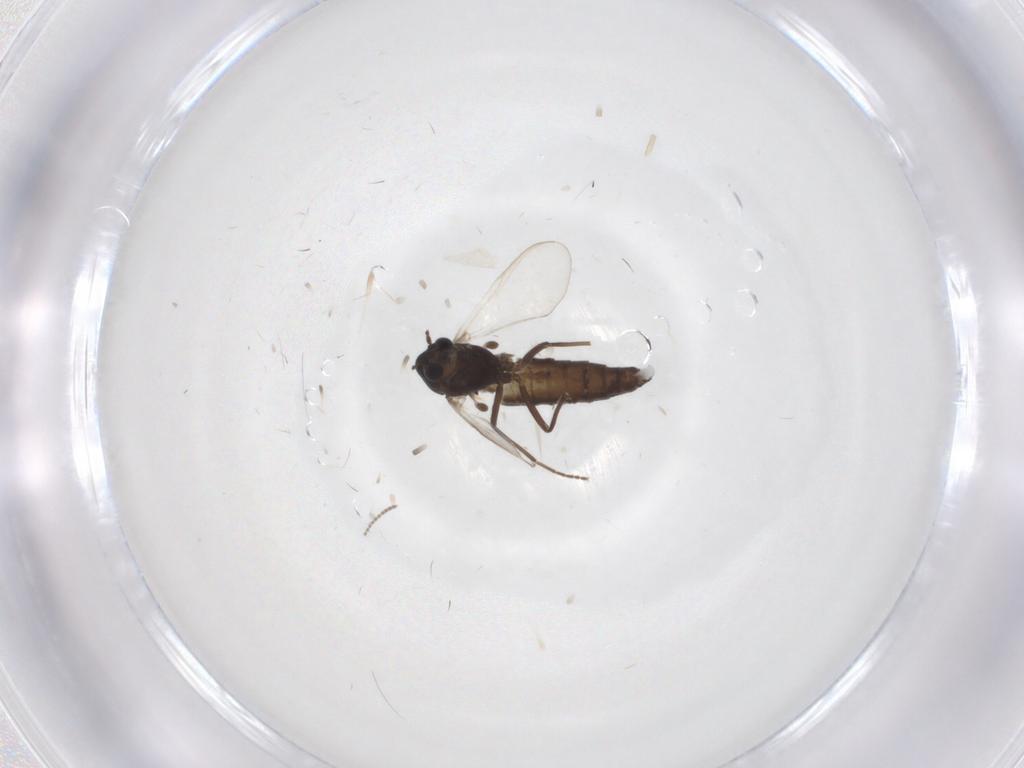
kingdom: Animalia
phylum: Arthropoda
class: Insecta
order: Diptera
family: Chironomidae
